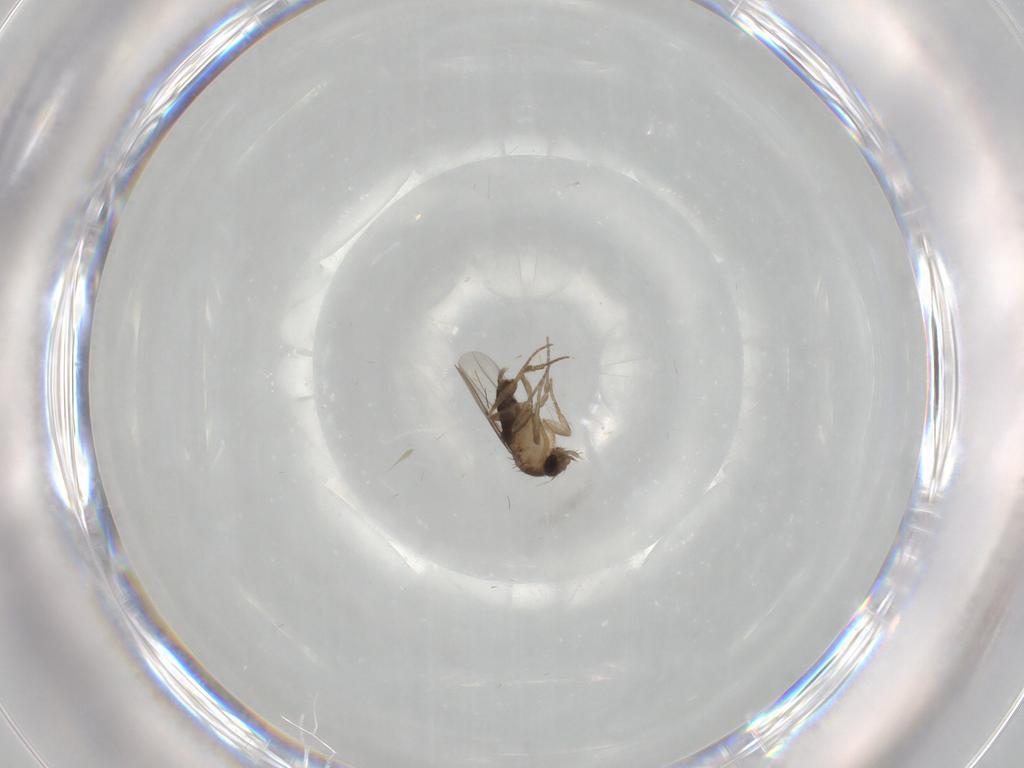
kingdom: Animalia
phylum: Arthropoda
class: Insecta
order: Diptera
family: Phoridae
